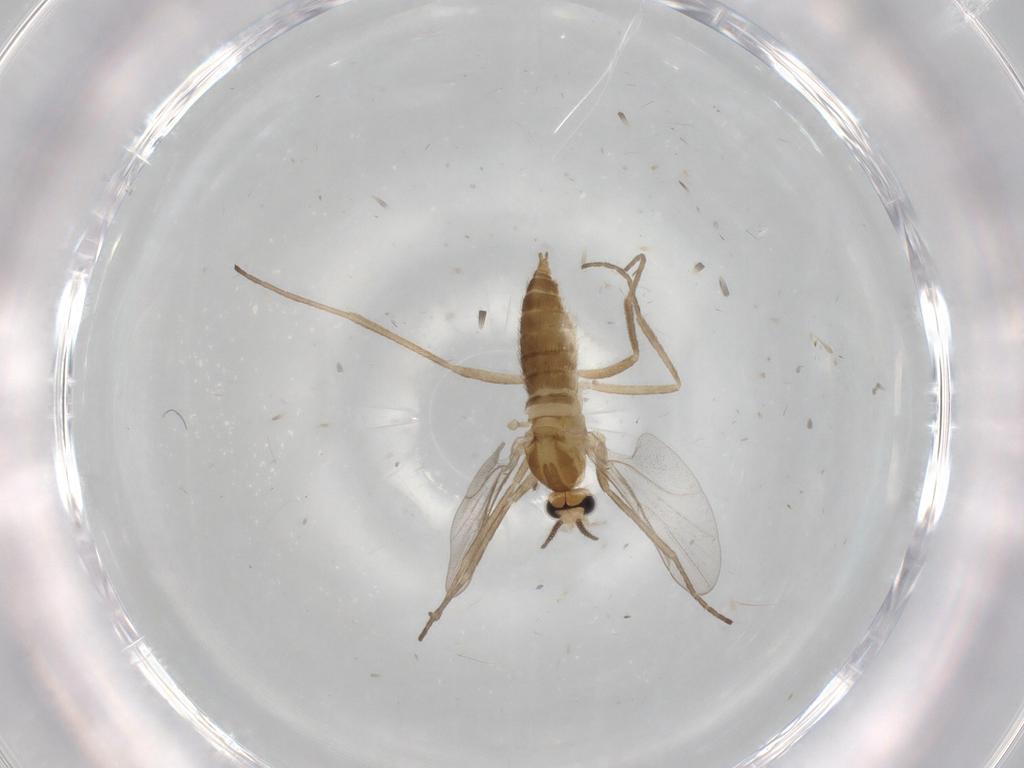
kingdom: Animalia
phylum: Arthropoda
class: Insecta
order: Diptera
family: Cecidomyiidae
